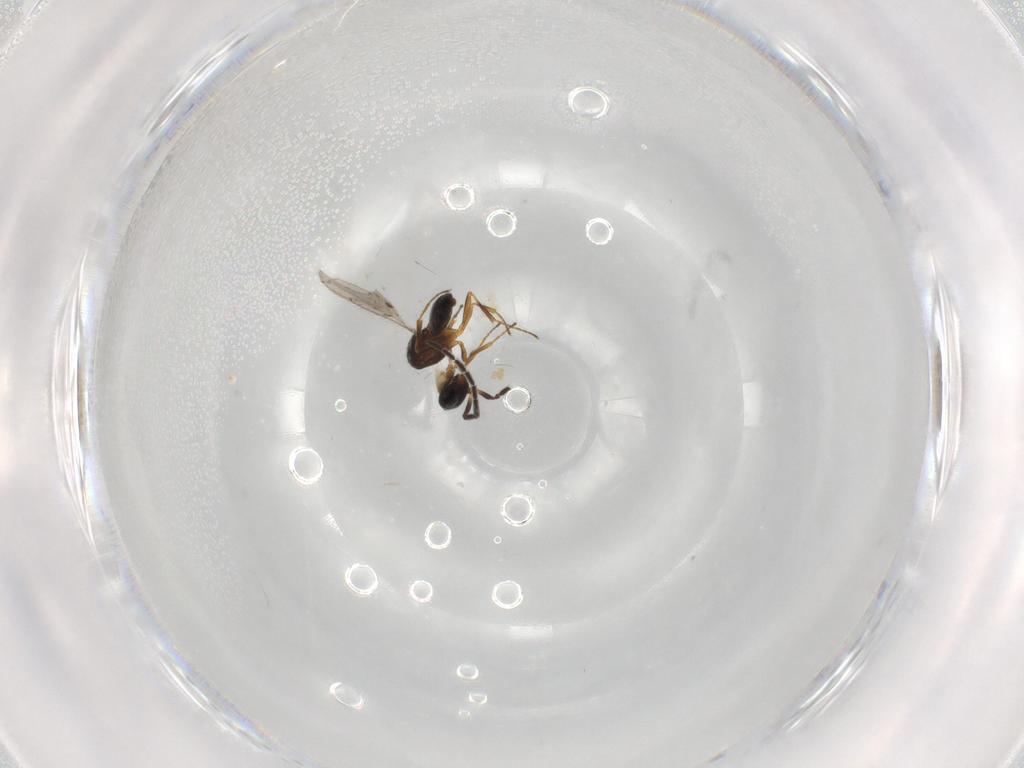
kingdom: Animalia
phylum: Arthropoda
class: Insecta
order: Hymenoptera
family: Scelionidae
